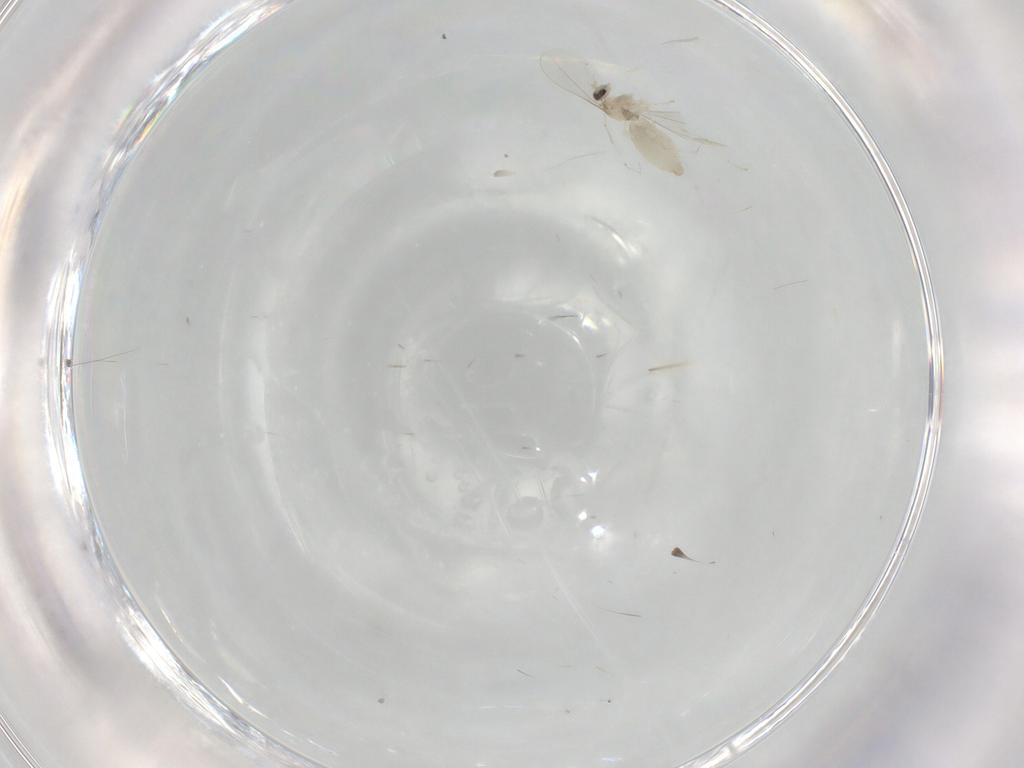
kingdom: Animalia
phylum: Arthropoda
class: Insecta
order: Diptera
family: Cecidomyiidae
